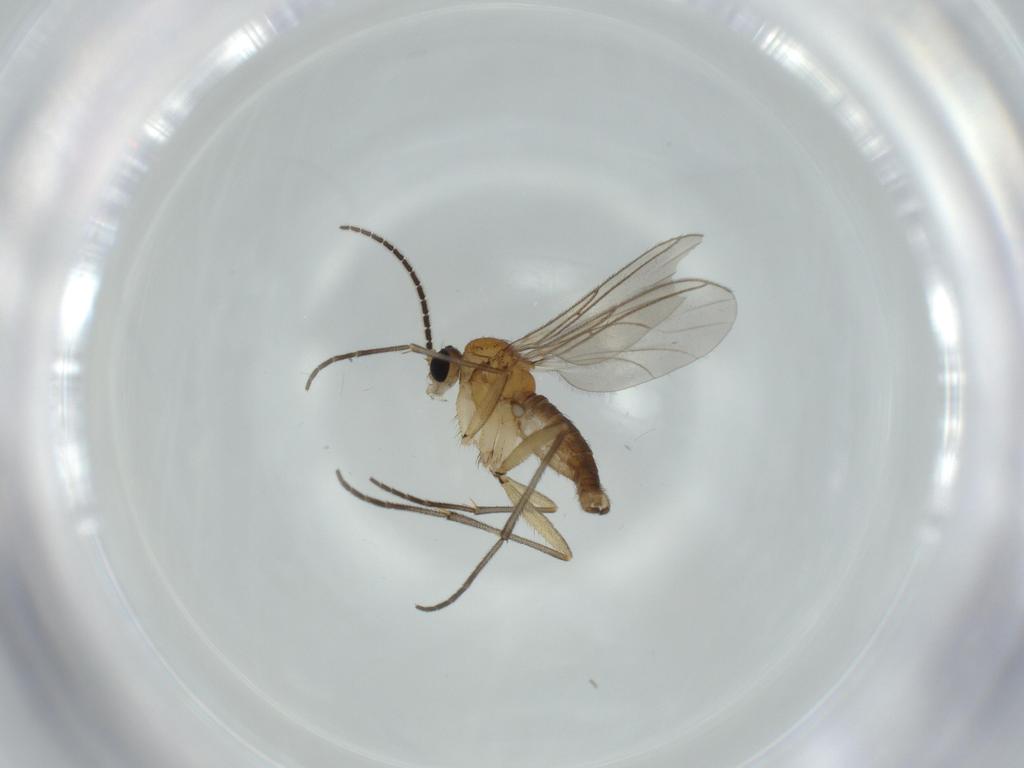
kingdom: Animalia
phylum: Arthropoda
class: Insecta
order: Diptera
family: Sciaridae
